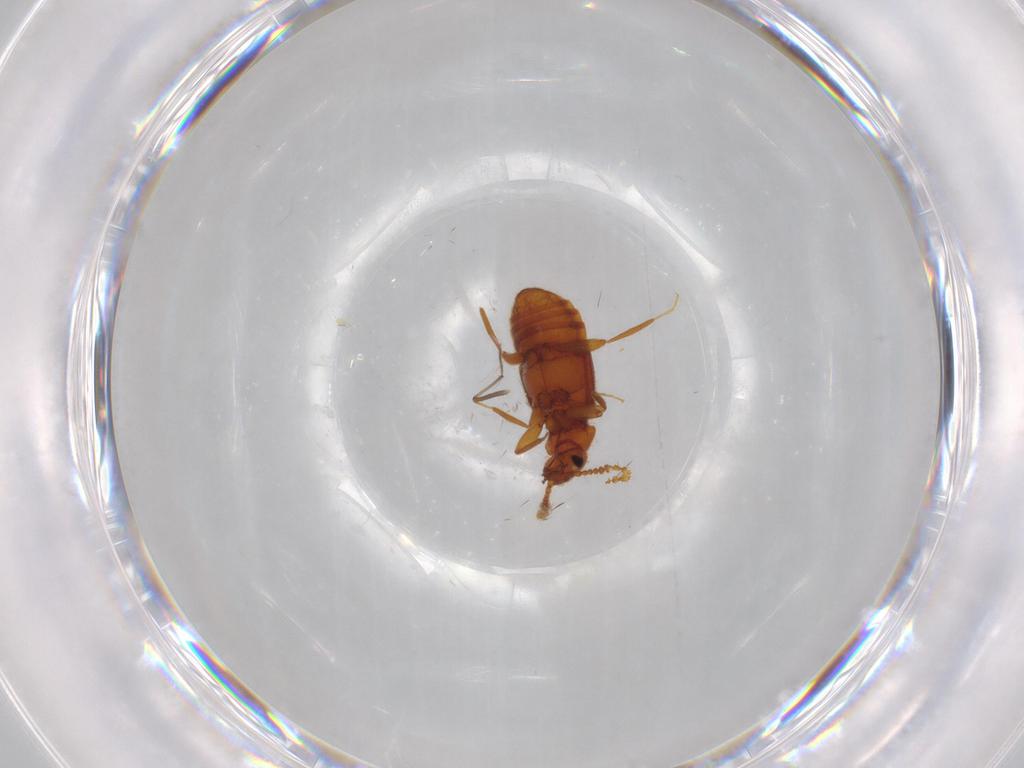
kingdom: Animalia
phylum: Arthropoda
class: Insecta
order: Coleoptera
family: Staphylinidae
